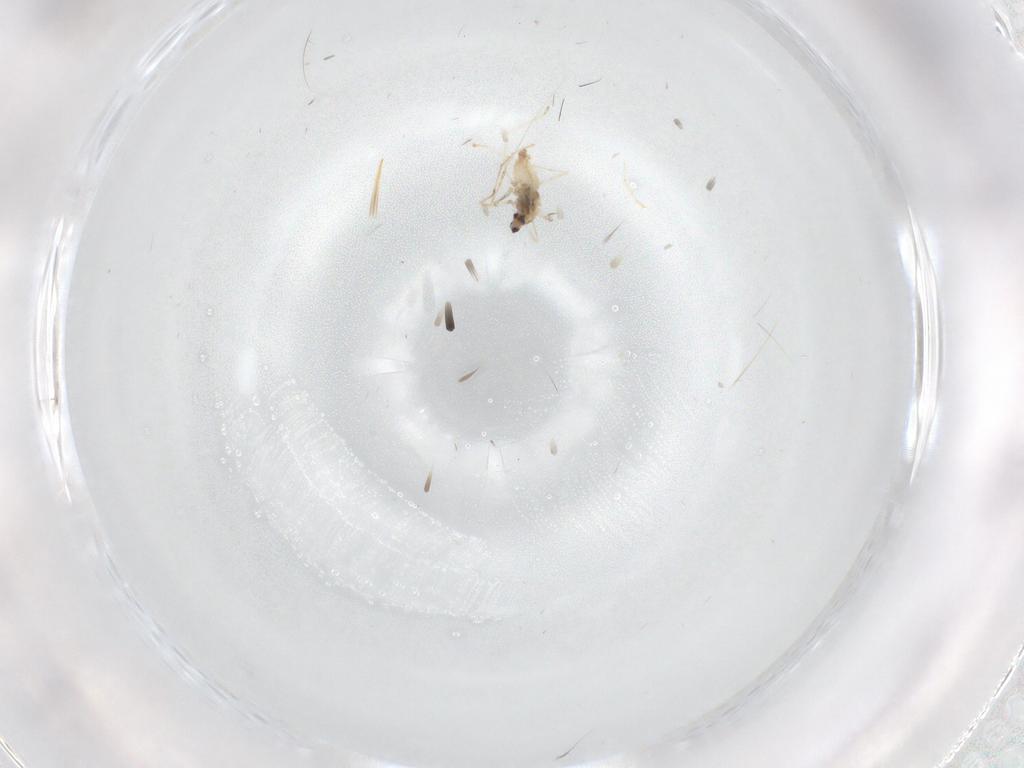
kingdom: Animalia
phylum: Arthropoda
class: Insecta
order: Diptera
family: Cecidomyiidae
